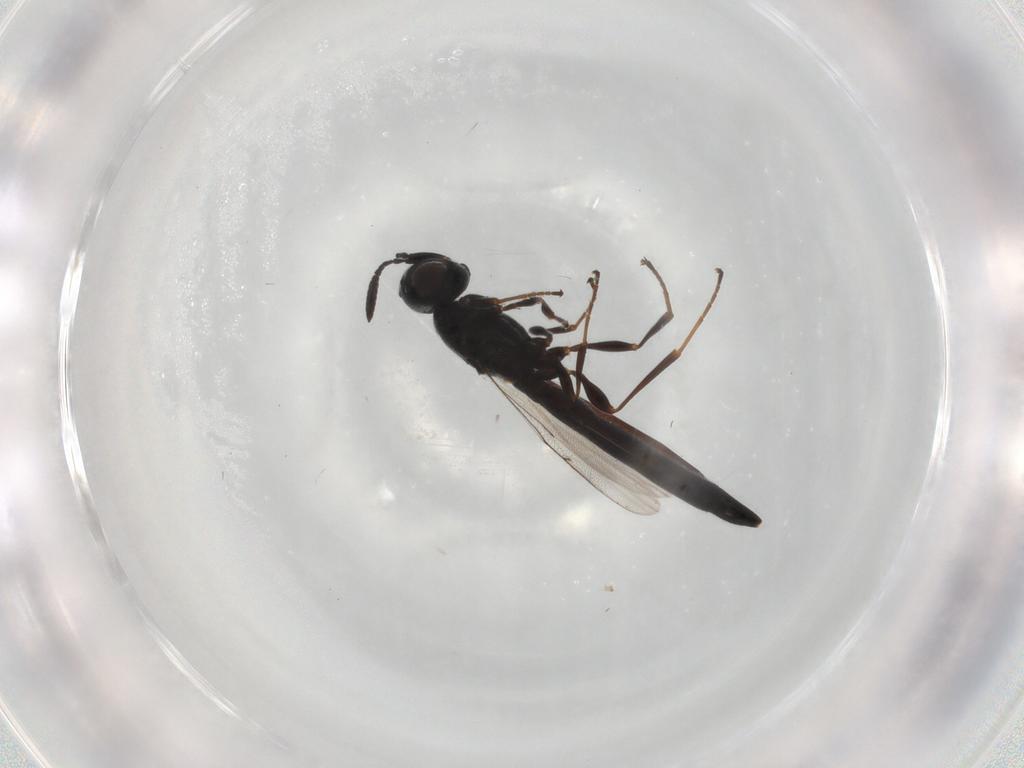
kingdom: Animalia
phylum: Arthropoda
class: Insecta
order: Hymenoptera
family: Scelionidae
